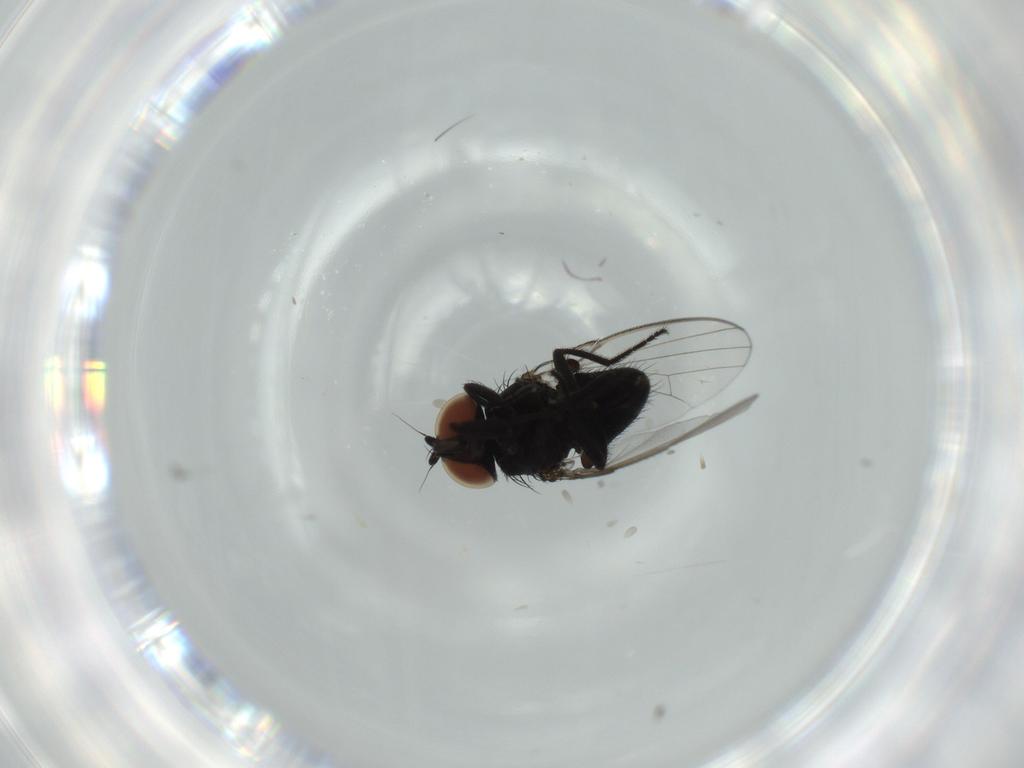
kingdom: Animalia
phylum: Arthropoda
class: Insecta
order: Diptera
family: Milichiidae
